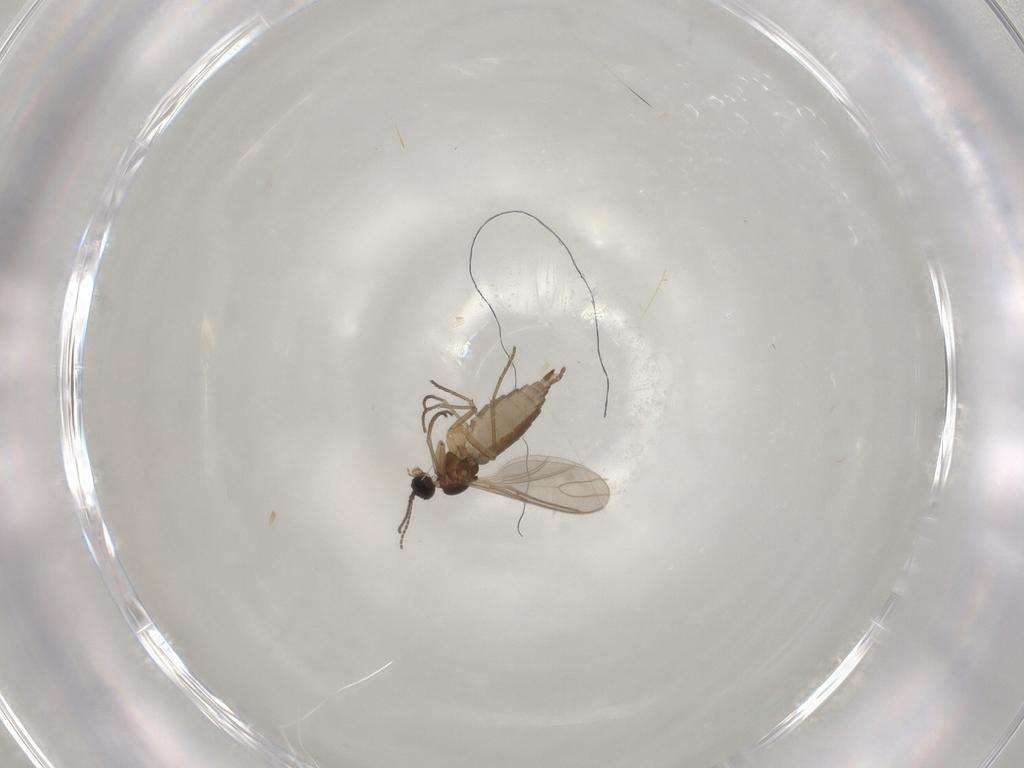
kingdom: Animalia
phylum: Arthropoda
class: Insecta
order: Diptera
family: Sciaridae
